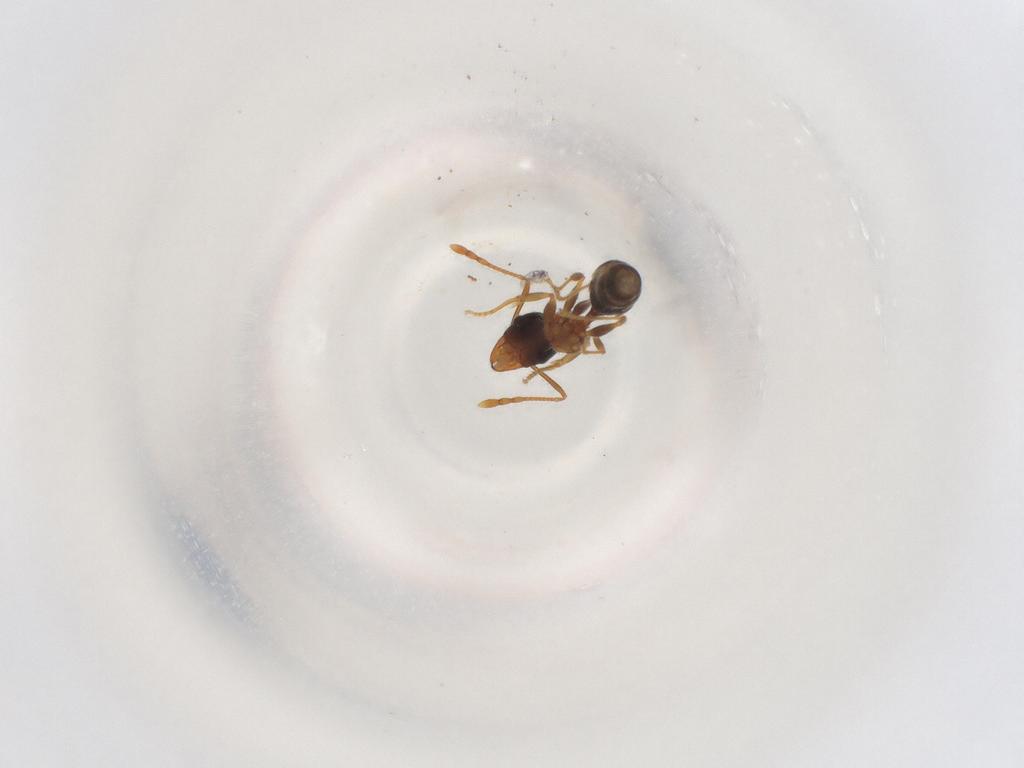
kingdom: Animalia
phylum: Arthropoda
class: Insecta
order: Hymenoptera
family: Formicidae
